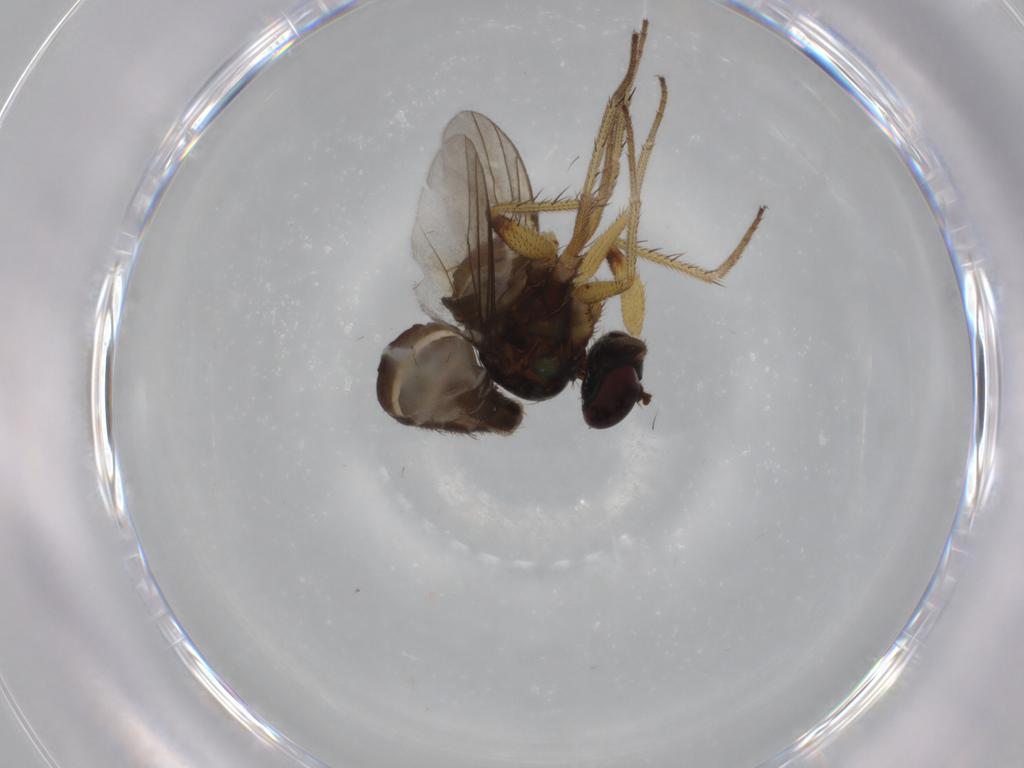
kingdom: Animalia
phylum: Arthropoda
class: Insecta
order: Diptera
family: Dolichopodidae
